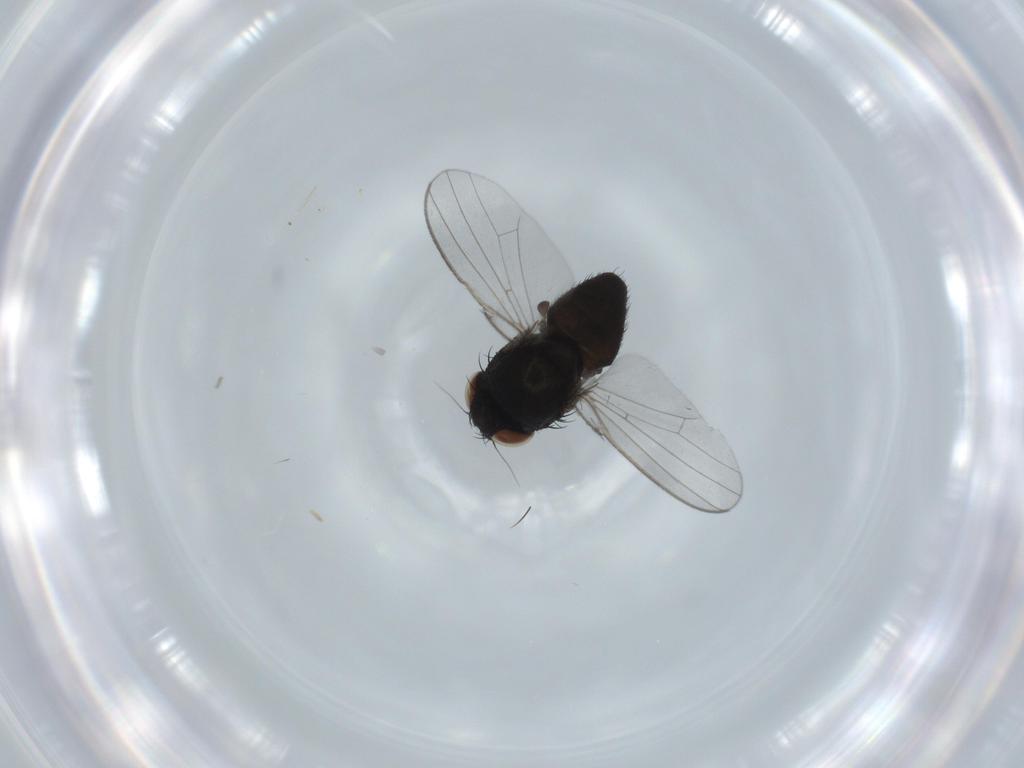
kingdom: Animalia
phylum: Arthropoda
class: Insecta
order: Diptera
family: Milichiidae
